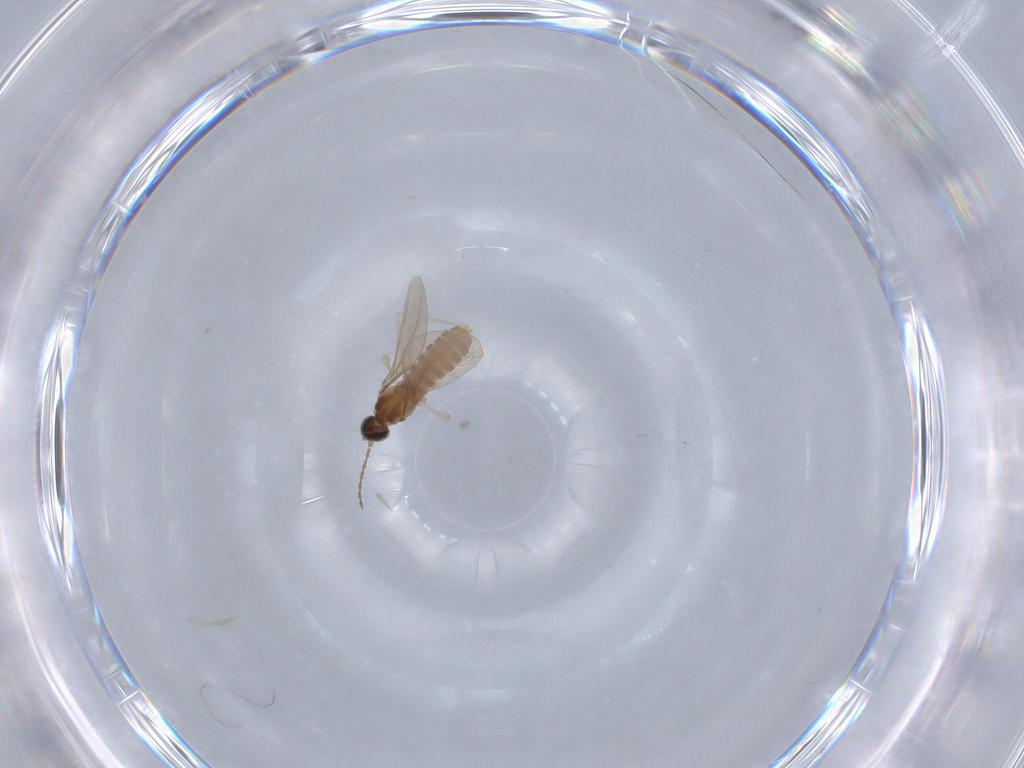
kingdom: Animalia
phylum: Arthropoda
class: Insecta
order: Diptera
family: Cecidomyiidae
